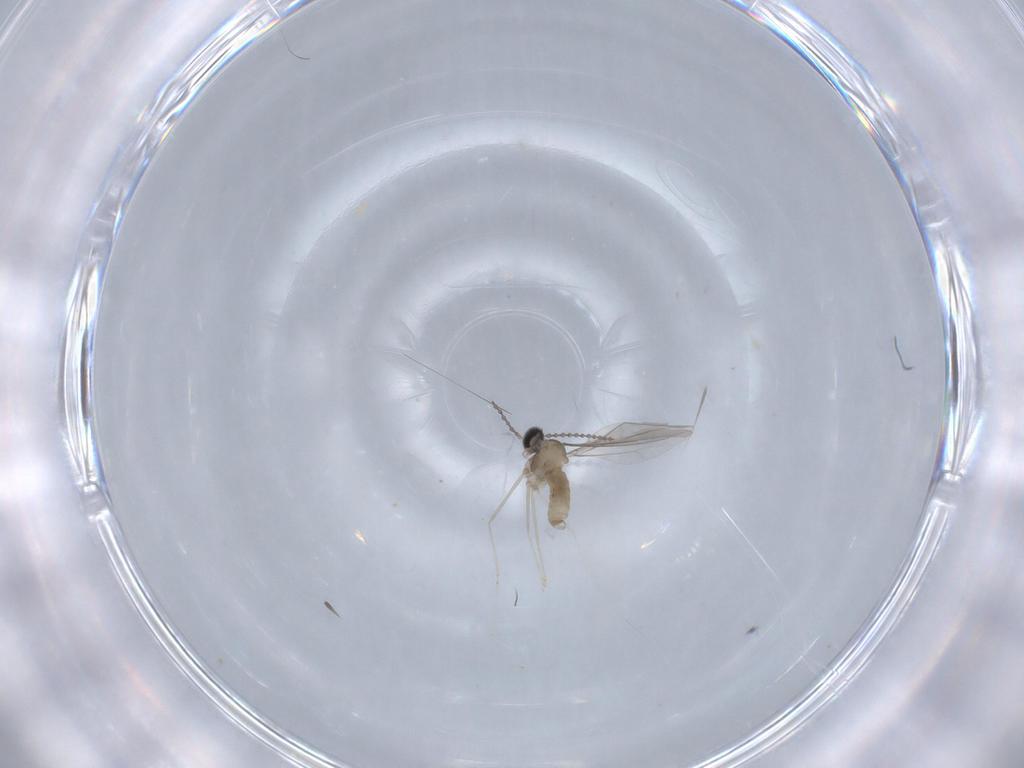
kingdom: Animalia
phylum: Arthropoda
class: Insecta
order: Diptera
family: Cecidomyiidae
